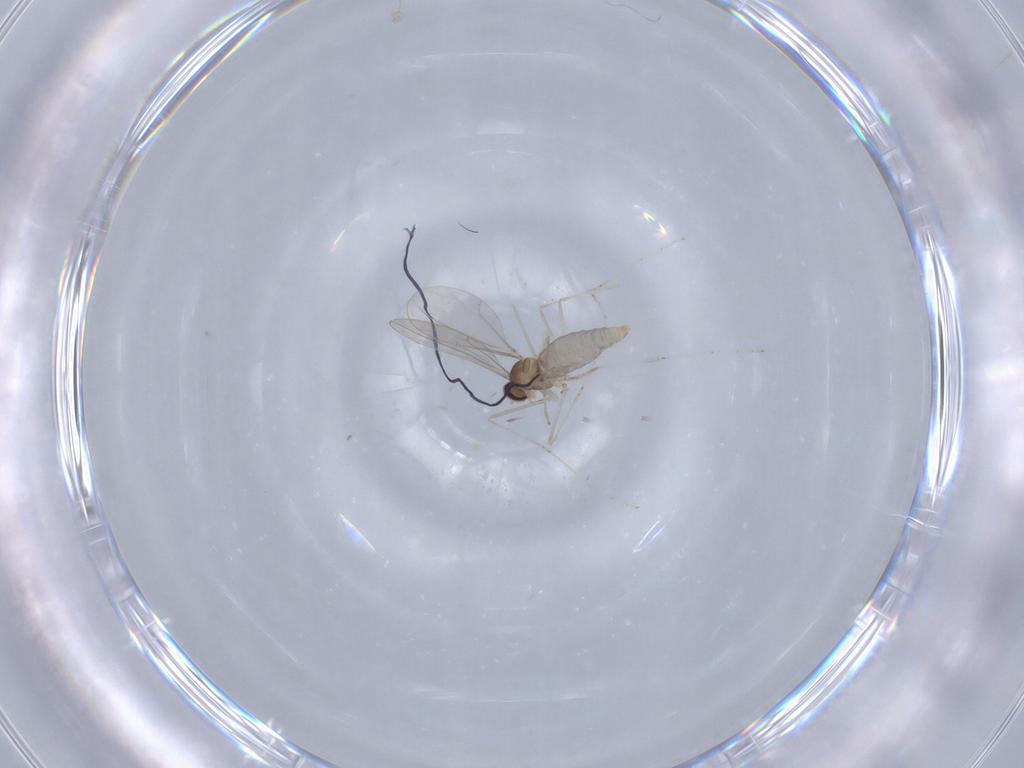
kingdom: Animalia
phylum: Arthropoda
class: Insecta
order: Diptera
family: Cecidomyiidae
